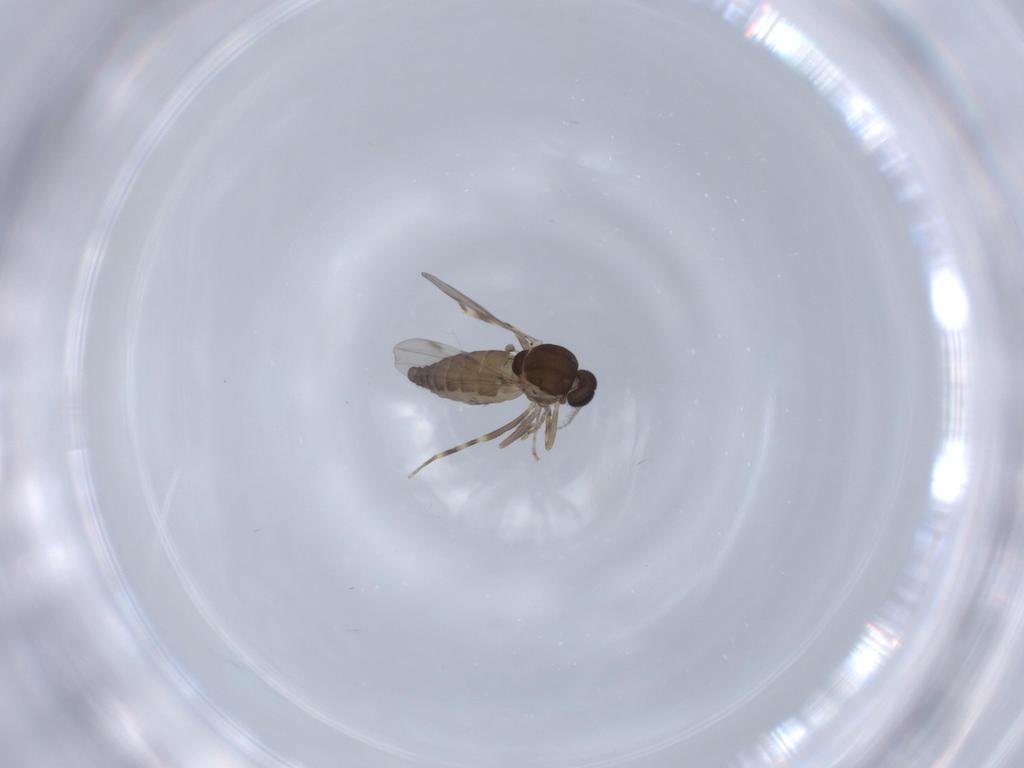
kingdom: Animalia
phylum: Arthropoda
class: Insecta
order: Diptera
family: Ceratopogonidae
